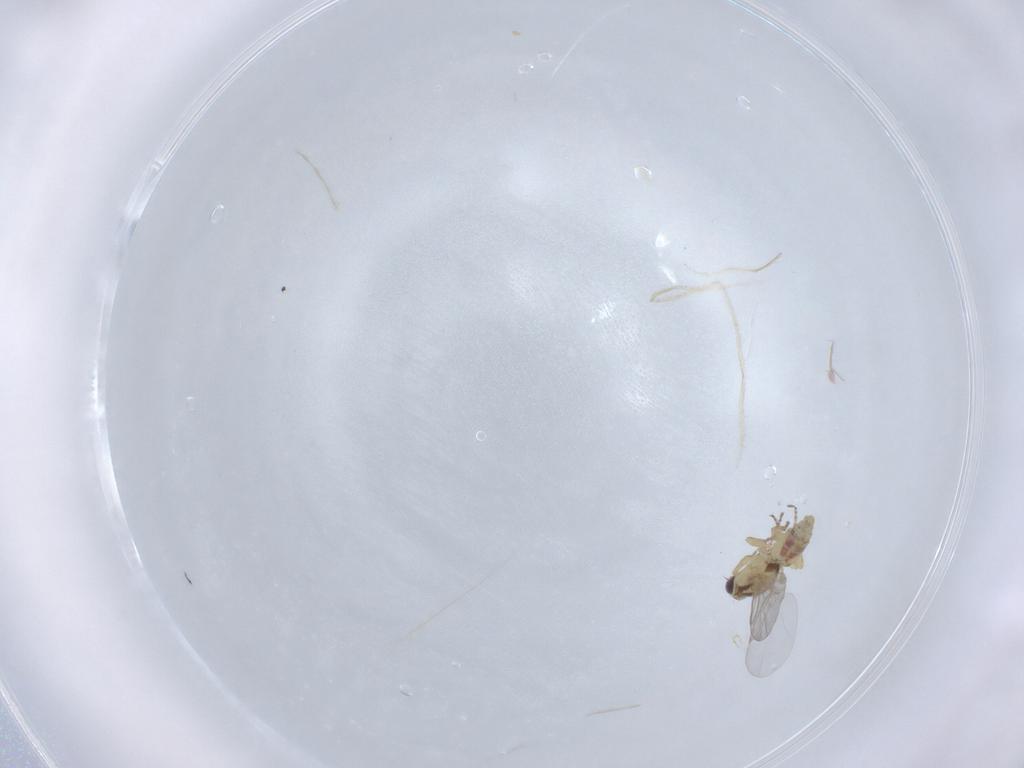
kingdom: Animalia
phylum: Arthropoda
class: Insecta
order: Diptera
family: Agromyzidae
